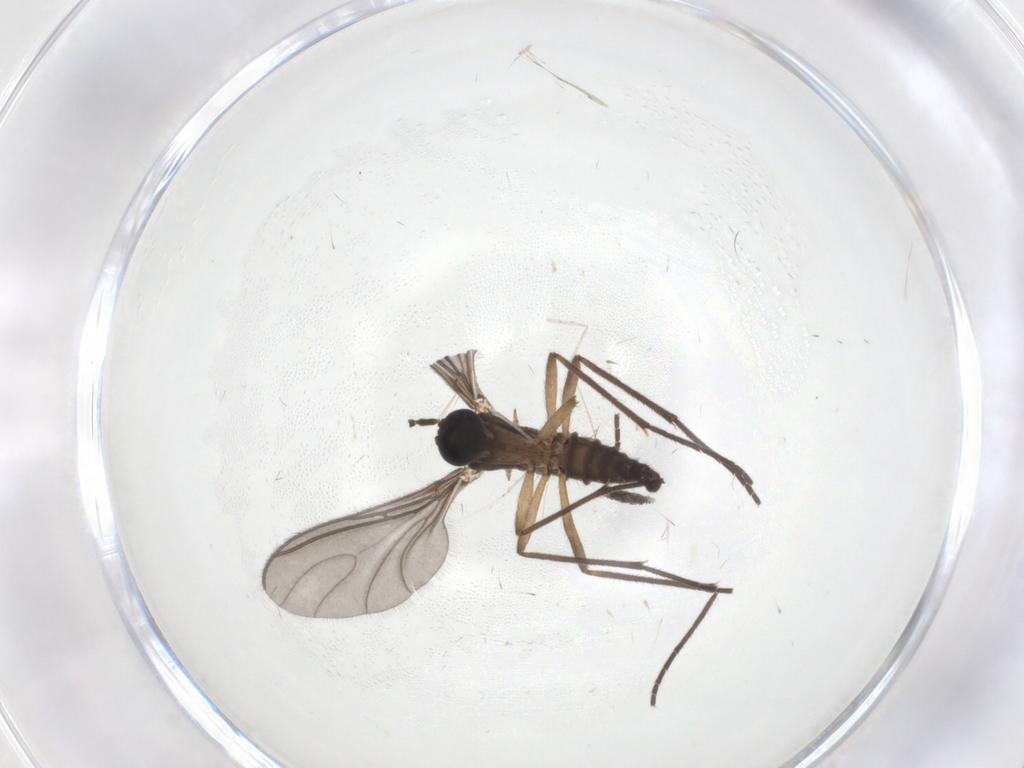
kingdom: Animalia
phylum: Arthropoda
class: Insecta
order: Diptera
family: Sciaridae
